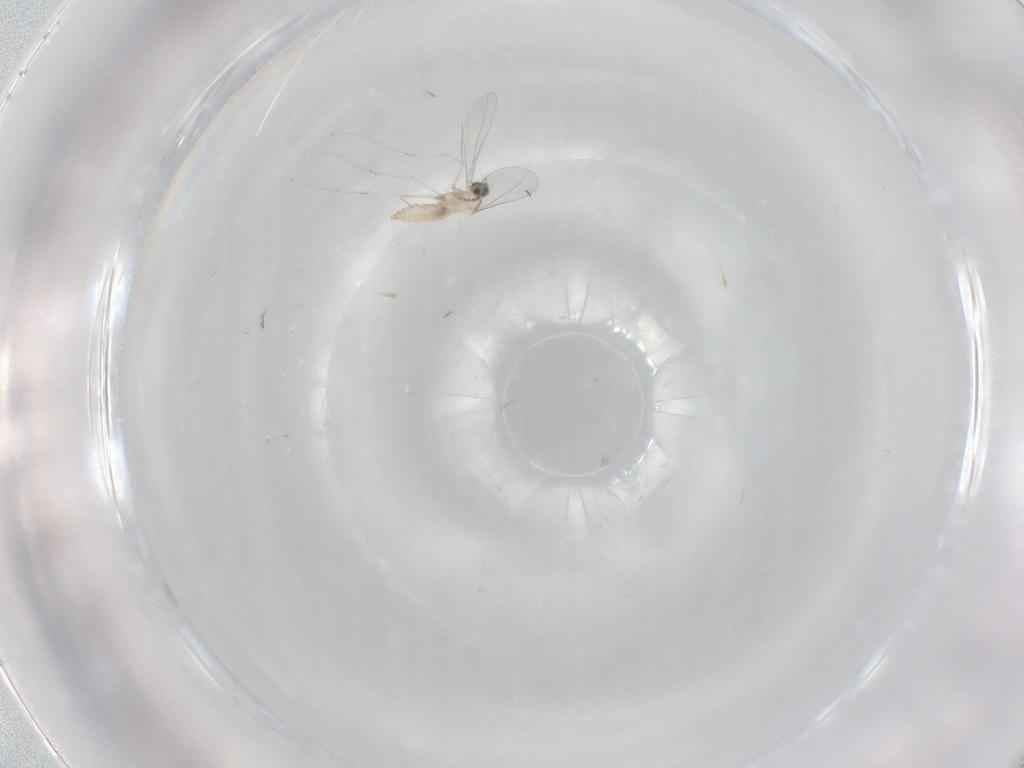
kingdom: Animalia
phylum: Arthropoda
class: Insecta
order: Diptera
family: Cecidomyiidae
